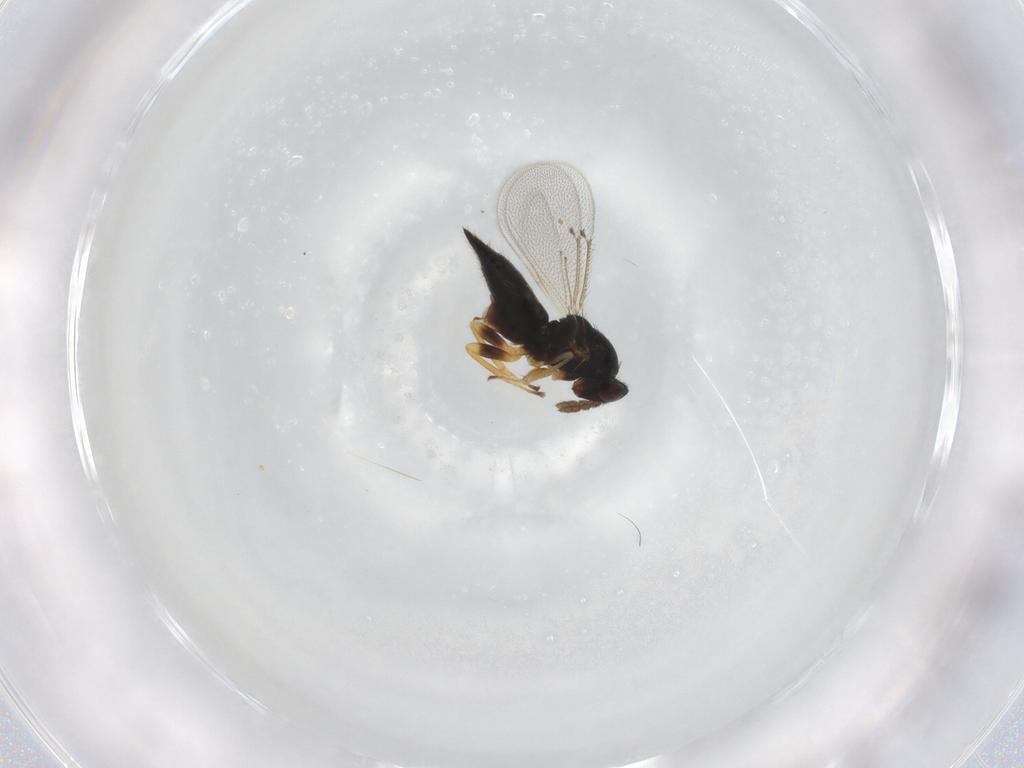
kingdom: Animalia
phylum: Arthropoda
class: Insecta
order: Hymenoptera
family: Eulophidae
